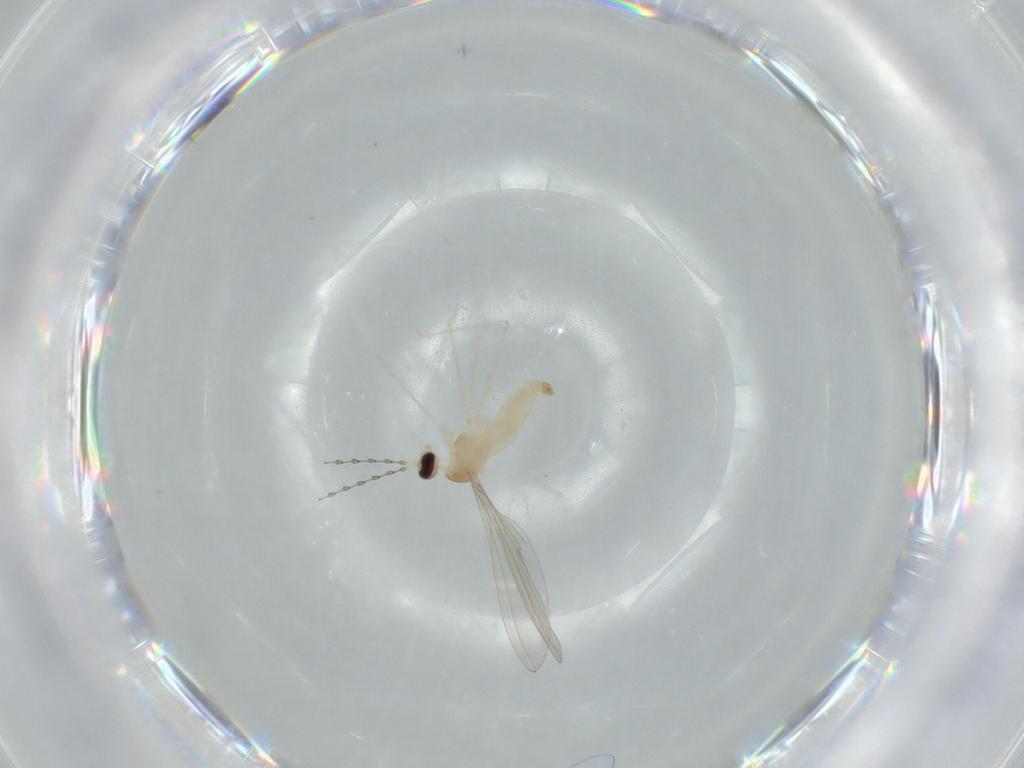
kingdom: Animalia
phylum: Arthropoda
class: Insecta
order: Diptera
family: Cecidomyiidae
